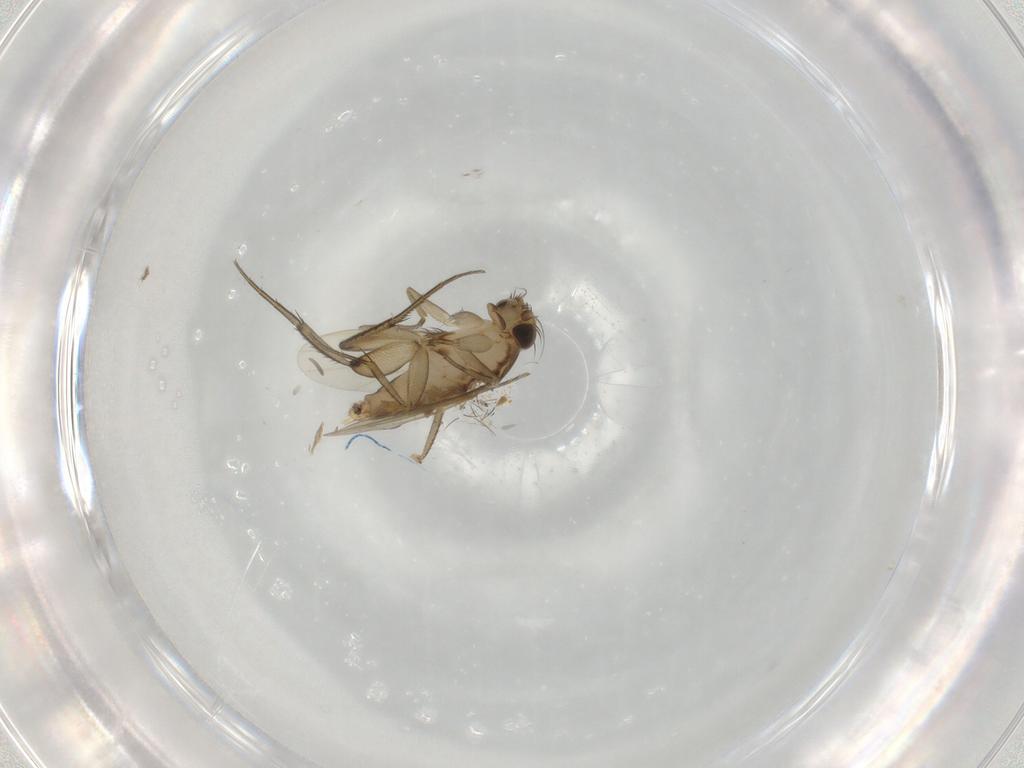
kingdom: Animalia
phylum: Arthropoda
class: Insecta
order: Diptera
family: Phoridae
